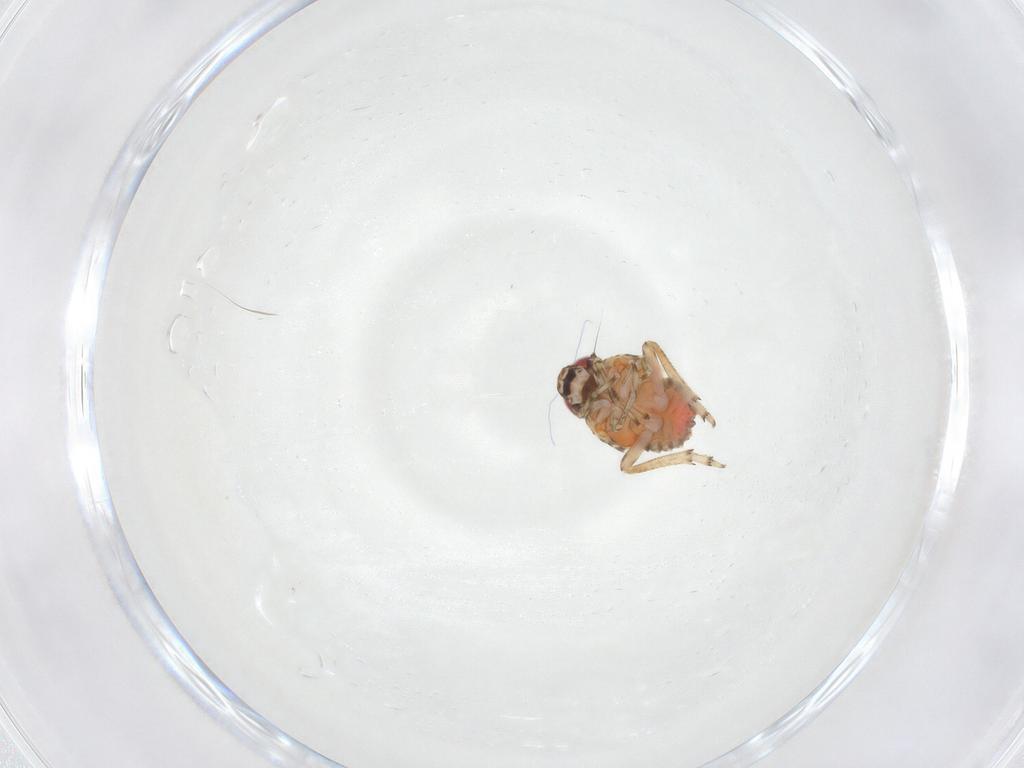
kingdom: Animalia
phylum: Arthropoda
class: Insecta
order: Hemiptera
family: Issidae
